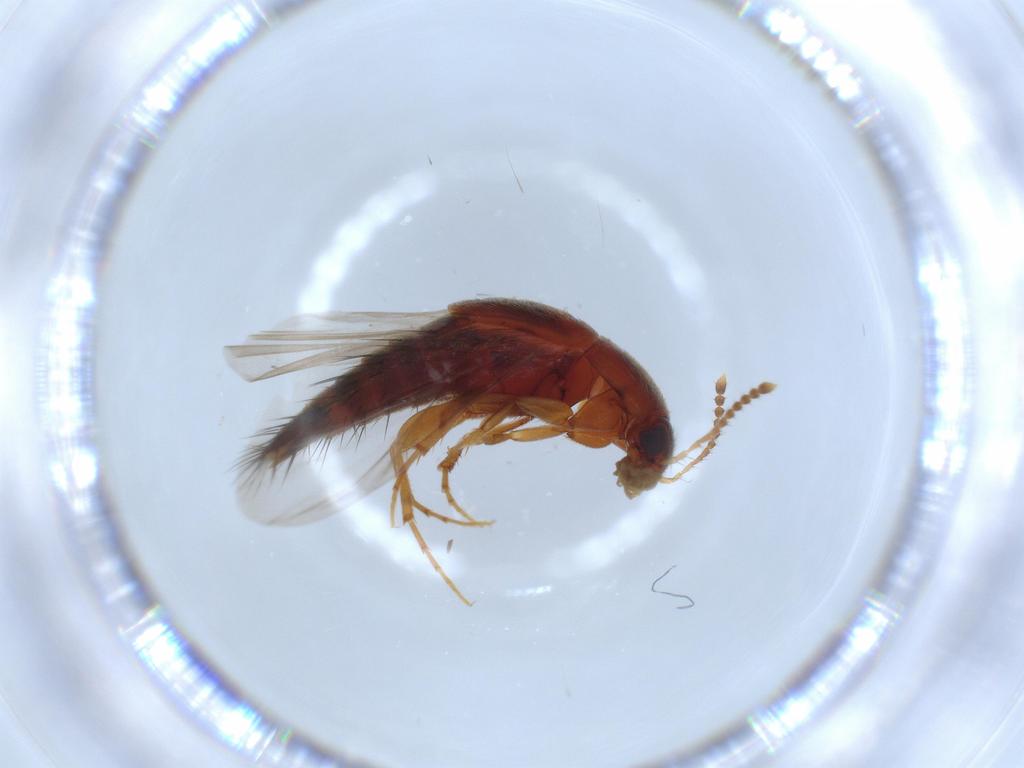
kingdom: Animalia
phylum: Arthropoda
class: Insecta
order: Coleoptera
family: Staphylinidae
